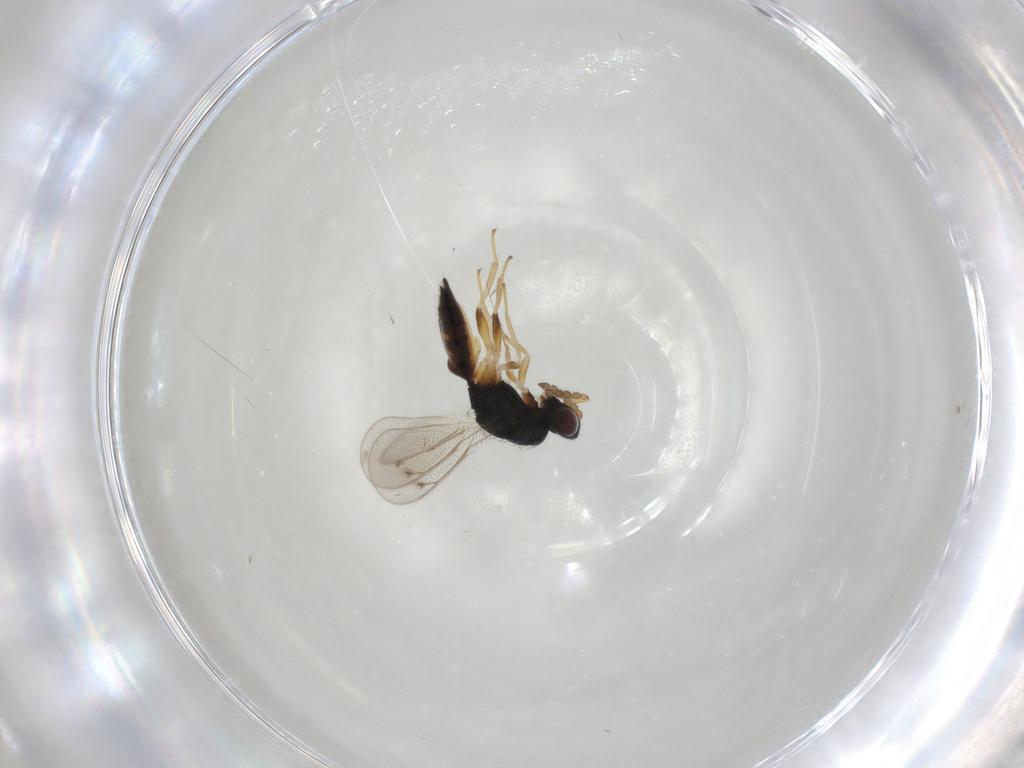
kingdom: Animalia
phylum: Arthropoda
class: Insecta
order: Hymenoptera
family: Eulophidae
